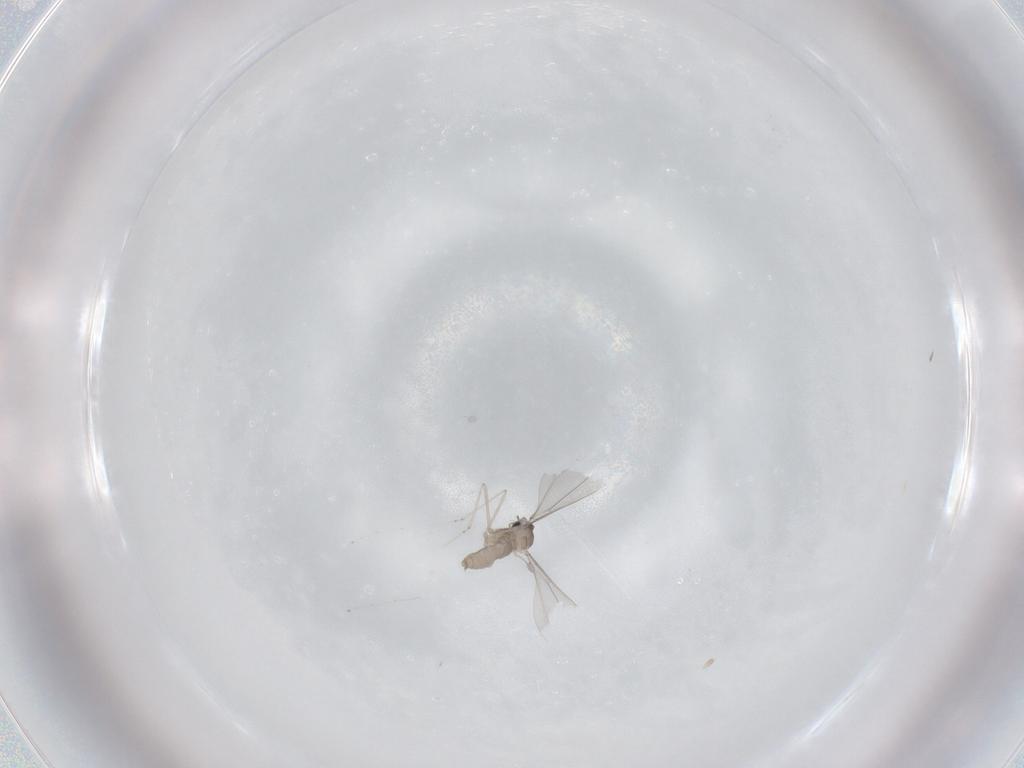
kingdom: Animalia
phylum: Arthropoda
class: Insecta
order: Diptera
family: Cecidomyiidae
